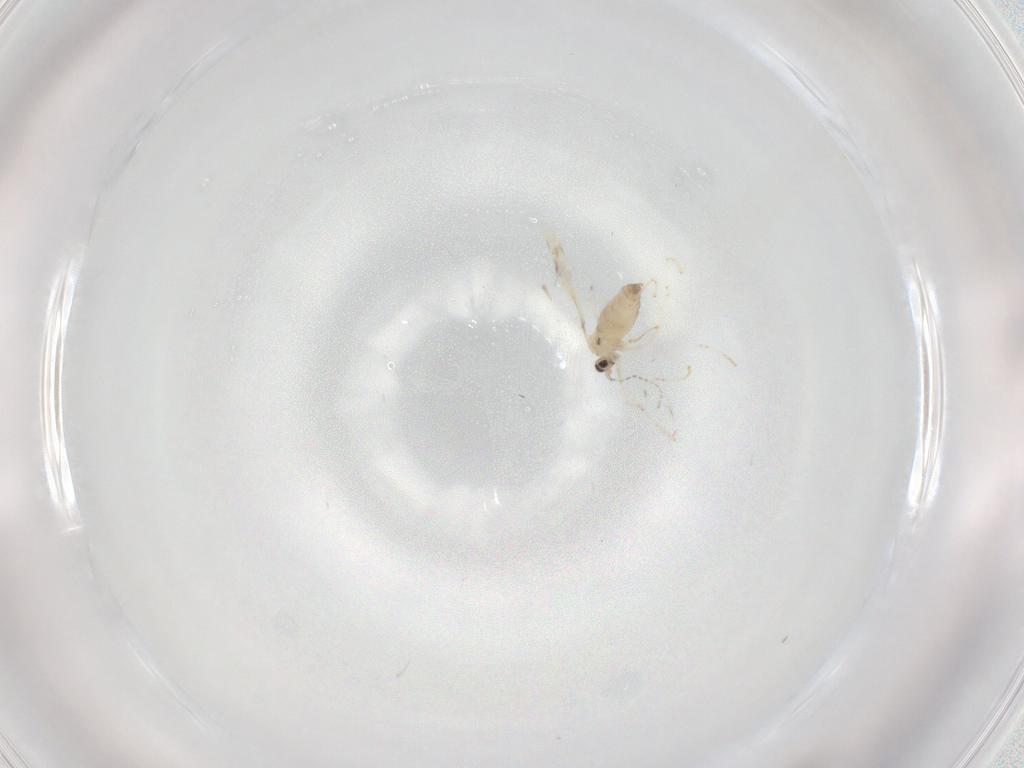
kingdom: Animalia
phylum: Arthropoda
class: Insecta
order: Diptera
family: Cecidomyiidae
